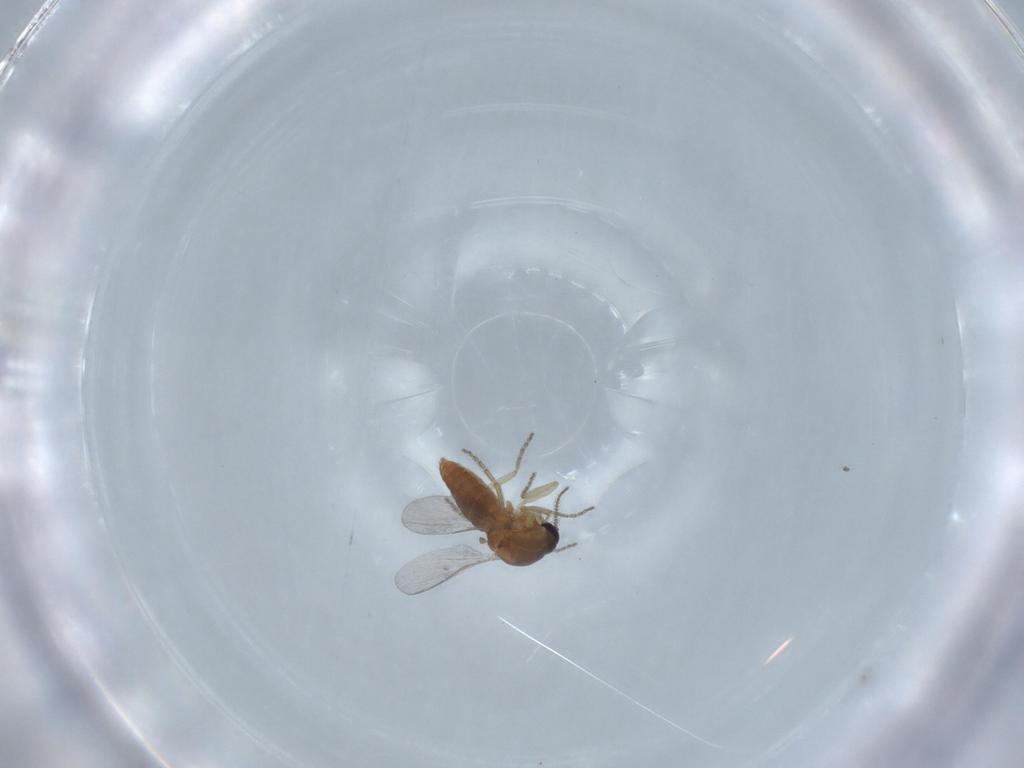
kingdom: Animalia
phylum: Arthropoda
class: Insecta
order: Diptera
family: Ceratopogonidae
